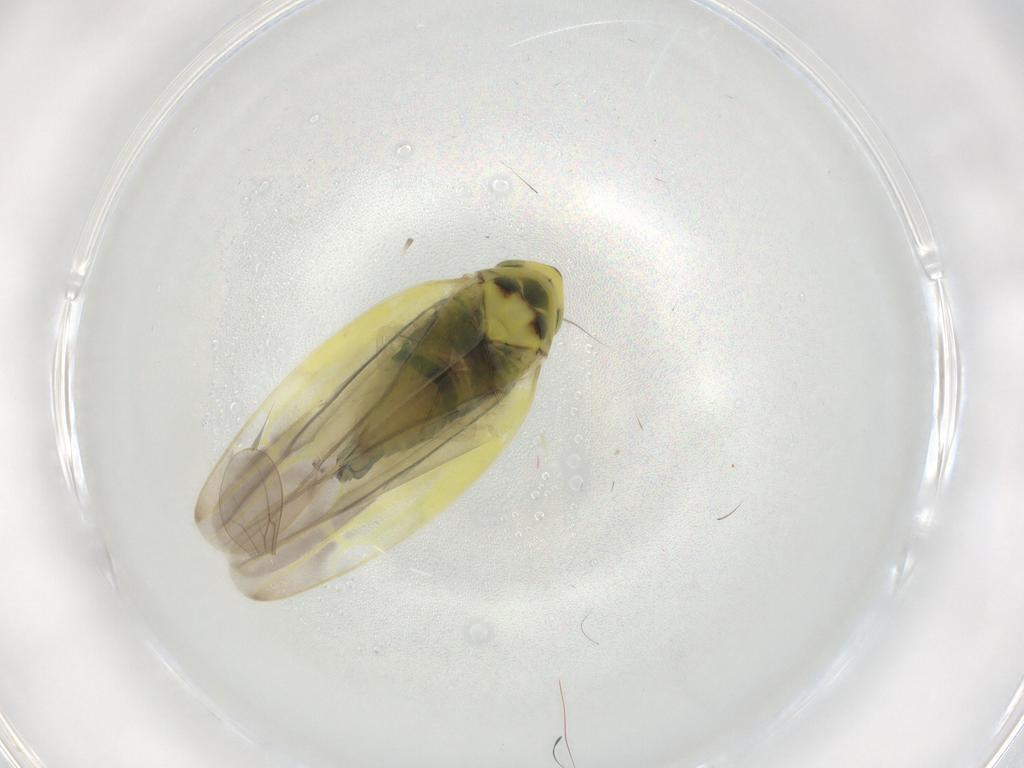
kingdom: Animalia
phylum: Arthropoda
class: Insecta
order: Hemiptera
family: Cicadellidae
